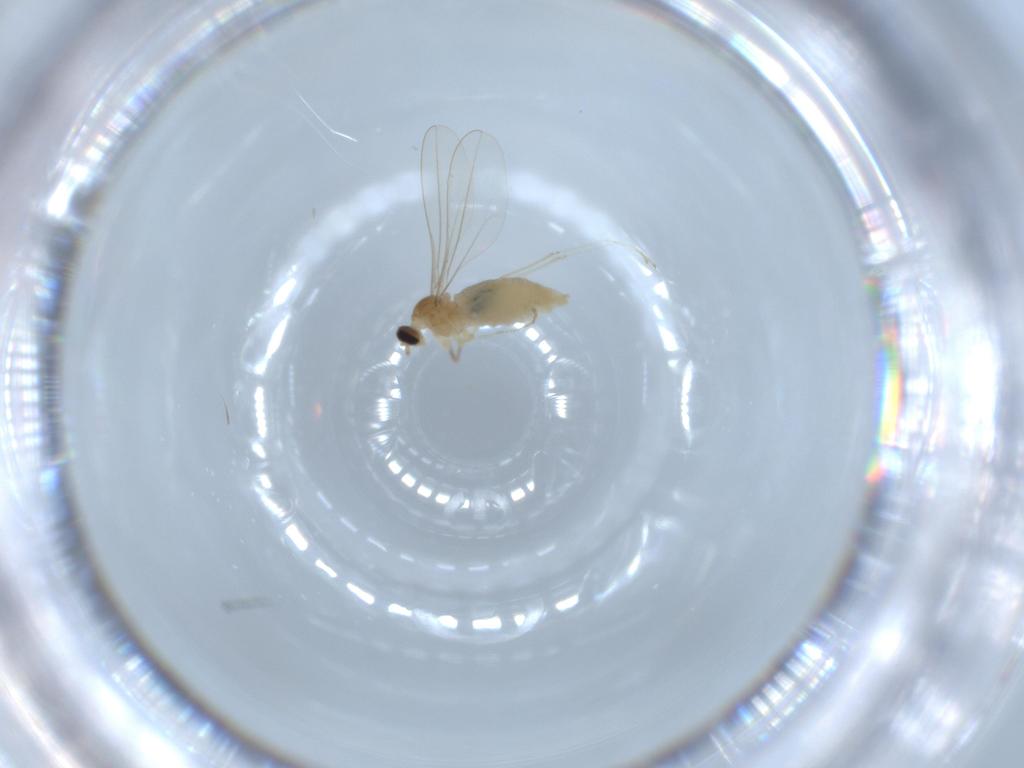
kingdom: Animalia
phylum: Arthropoda
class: Insecta
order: Diptera
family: Cecidomyiidae
